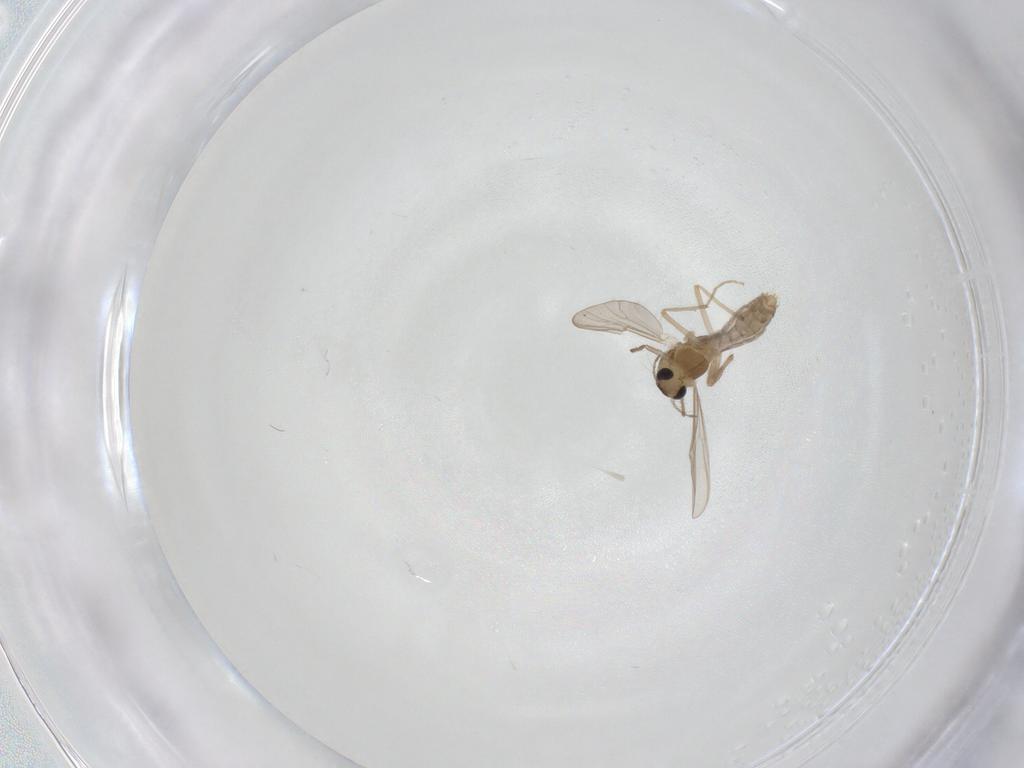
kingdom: Animalia
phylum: Arthropoda
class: Insecta
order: Diptera
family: Chironomidae
